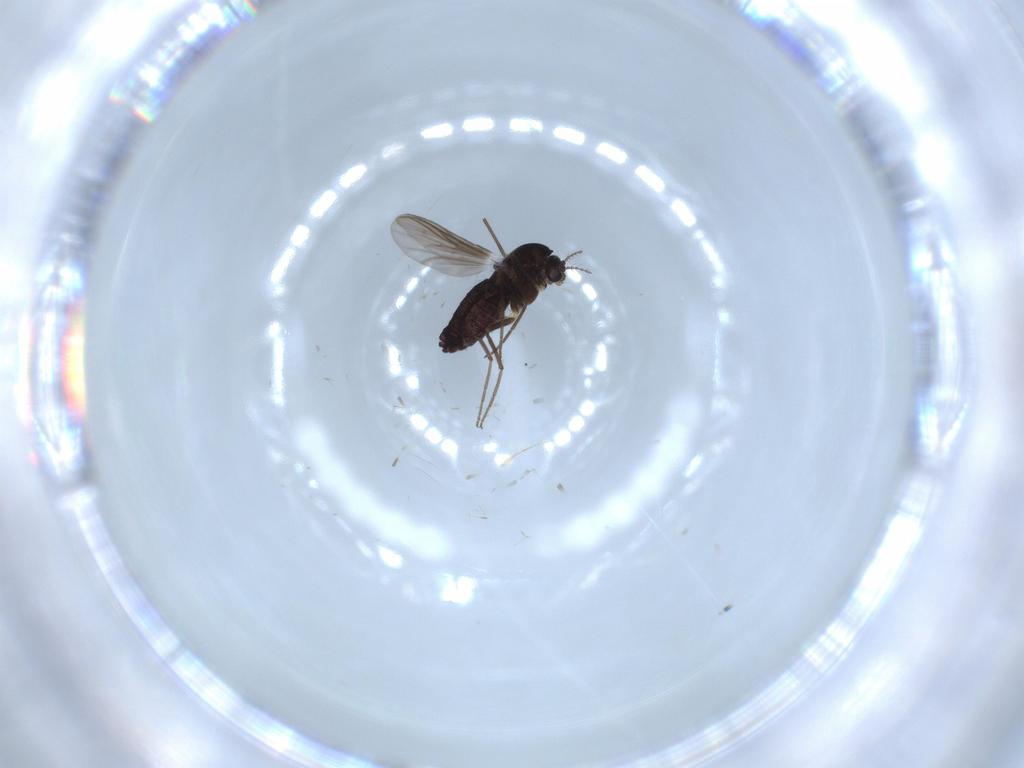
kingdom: Animalia
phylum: Arthropoda
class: Insecta
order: Diptera
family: Chironomidae
